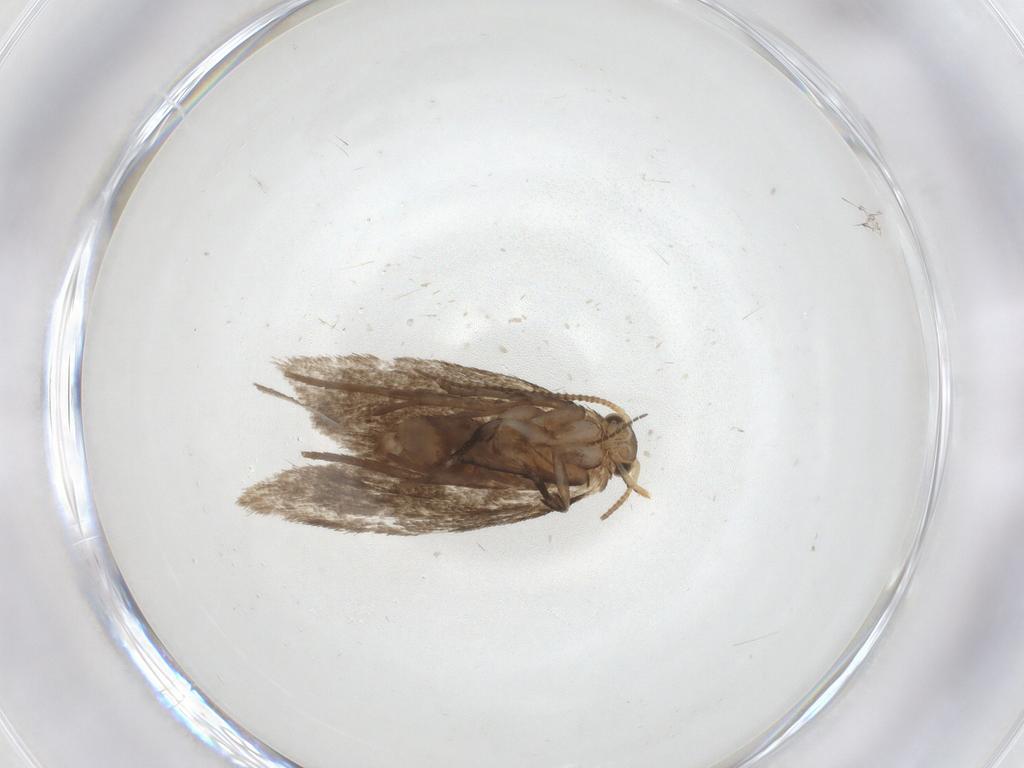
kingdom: Animalia
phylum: Arthropoda
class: Insecta
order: Lepidoptera
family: Dryadaulidae
